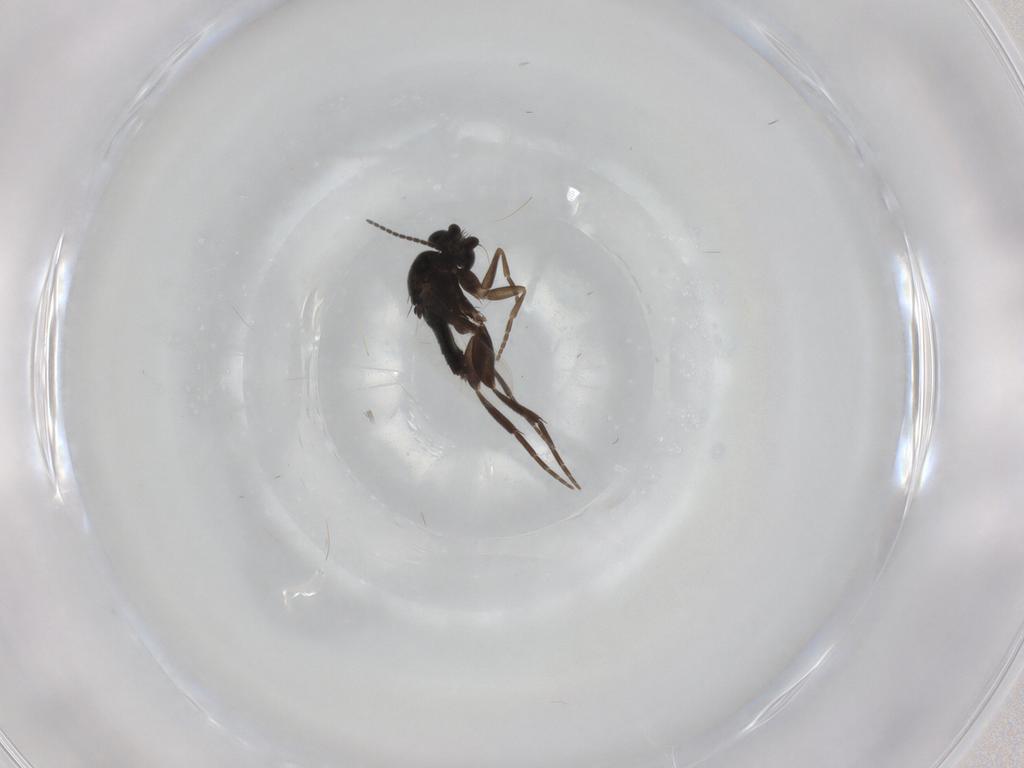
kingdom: Animalia
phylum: Arthropoda
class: Insecta
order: Diptera
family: Phoridae
